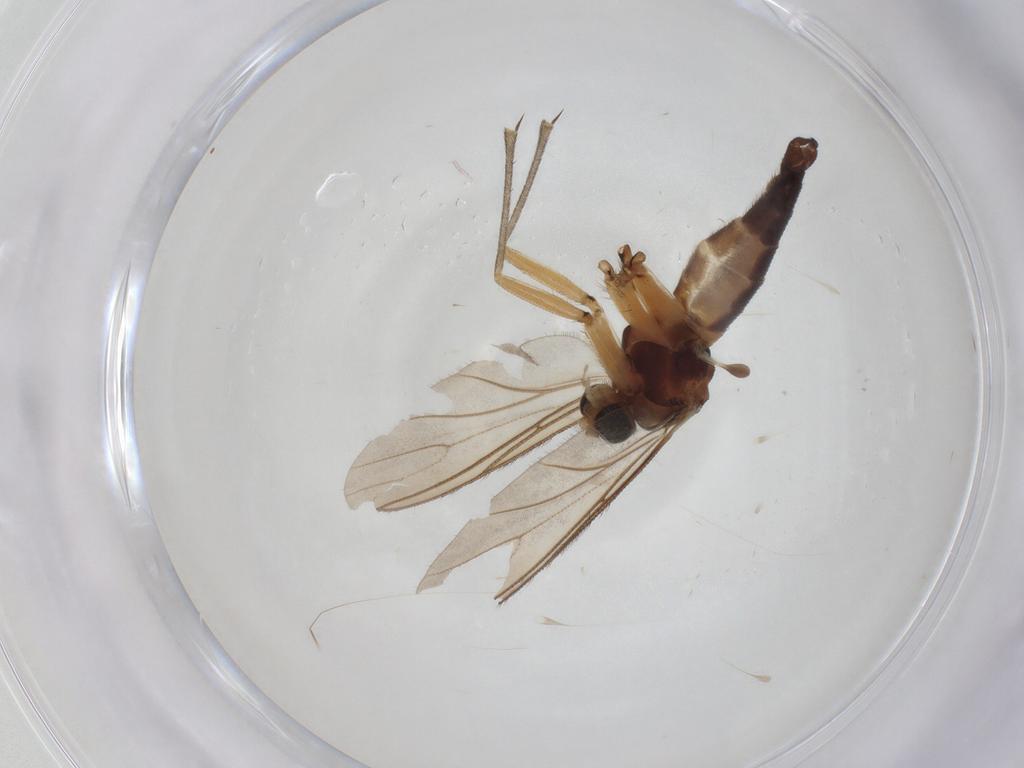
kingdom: Animalia
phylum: Arthropoda
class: Insecta
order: Diptera
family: Sciaridae
